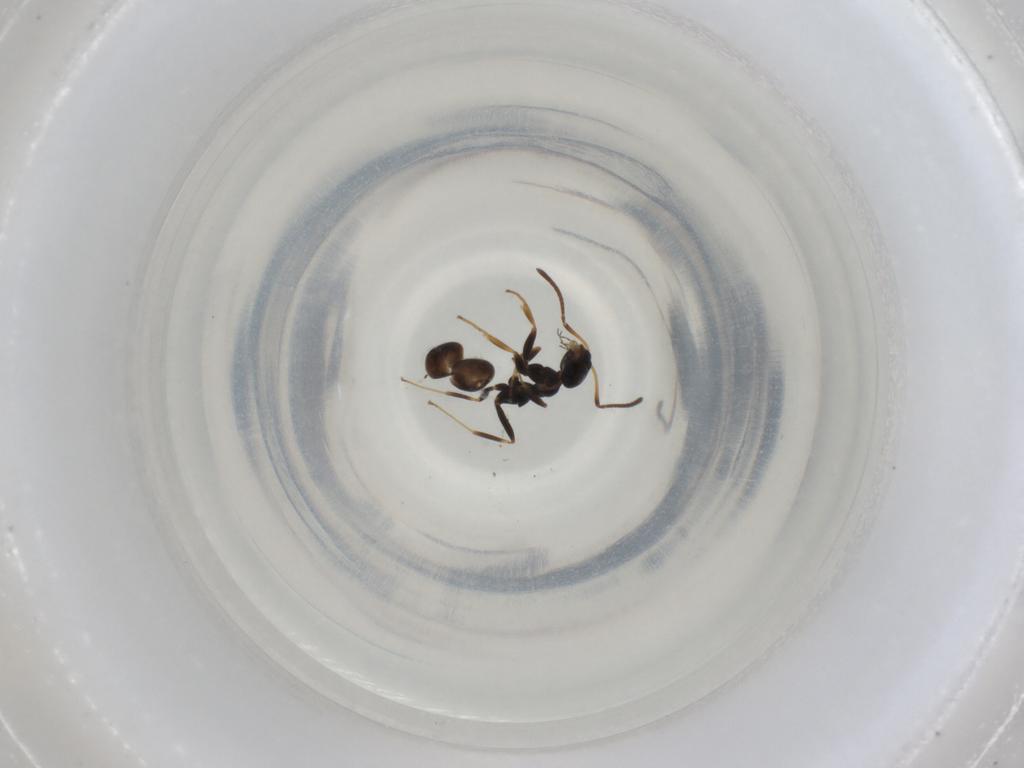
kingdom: Animalia
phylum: Arthropoda
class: Insecta
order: Hymenoptera
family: Formicidae
